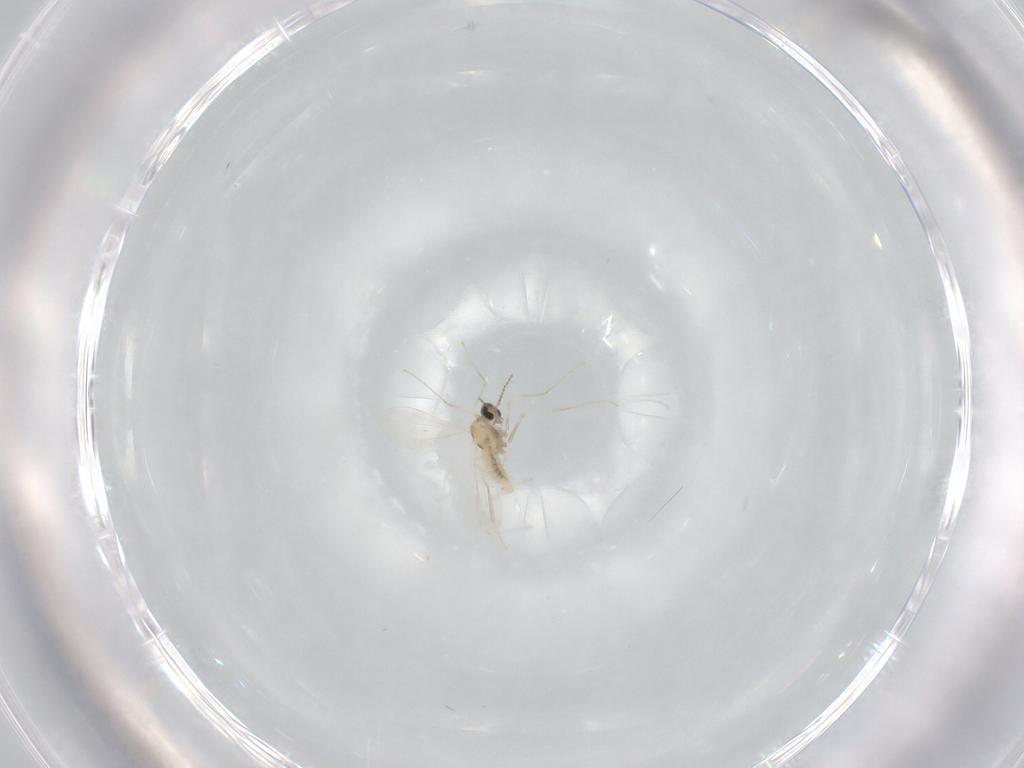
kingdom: Animalia
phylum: Arthropoda
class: Insecta
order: Diptera
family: Cecidomyiidae
